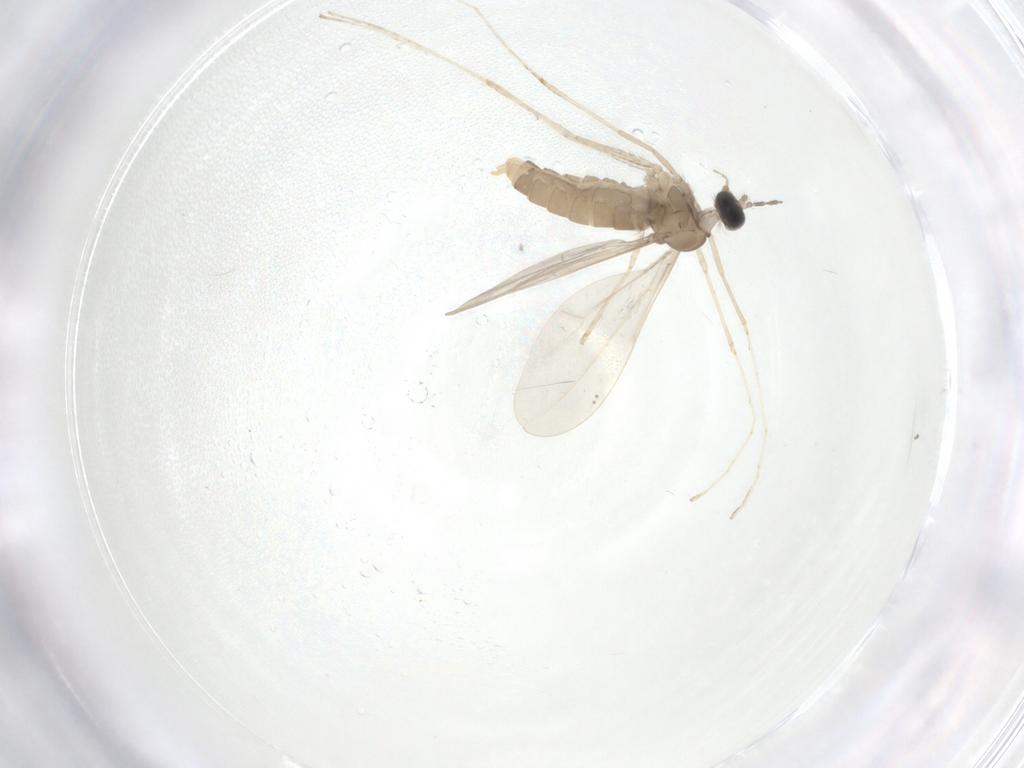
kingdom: Animalia
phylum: Arthropoda
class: Insecta
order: Diptera
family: Cecidomyiidae
